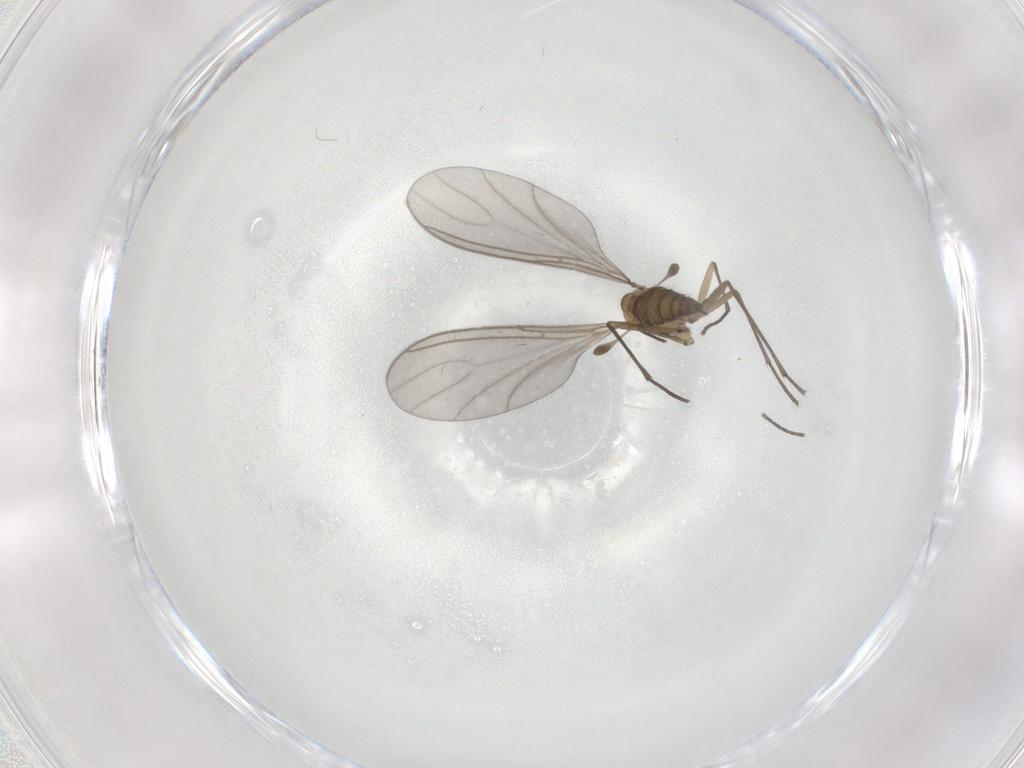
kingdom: Animalia
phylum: Arthropoda
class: Insecta
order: Diptera
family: Sciaridae
